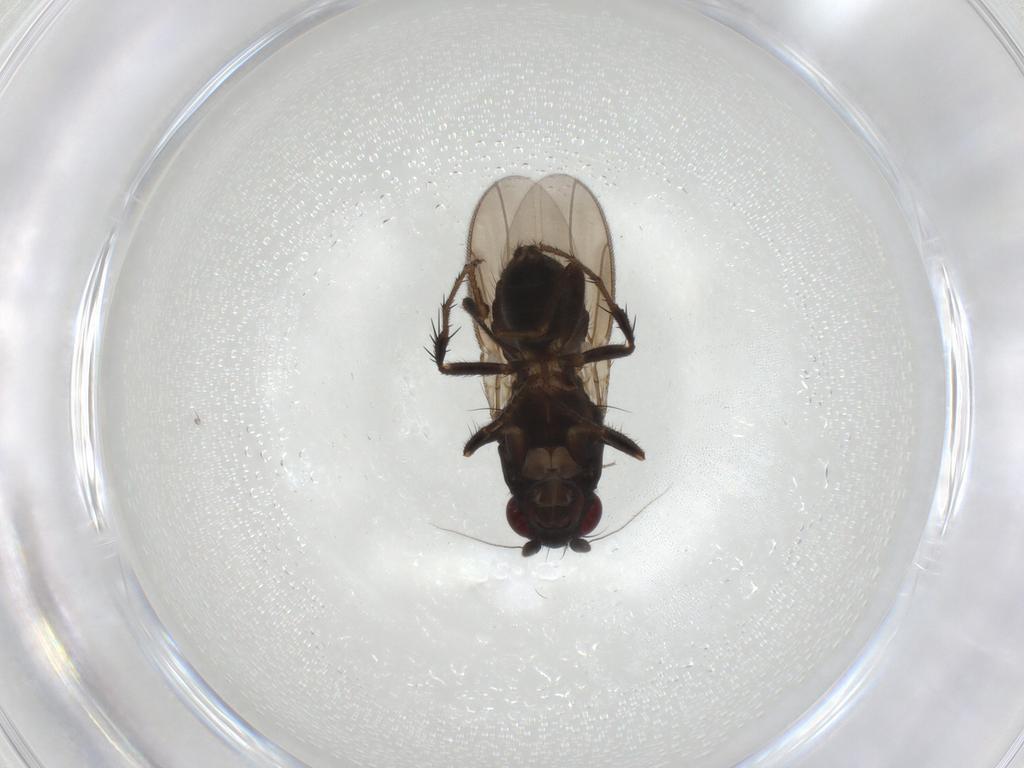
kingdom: Animalia
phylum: Arthropoda
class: Insecta
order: Diptera
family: Sphaeroceridae
